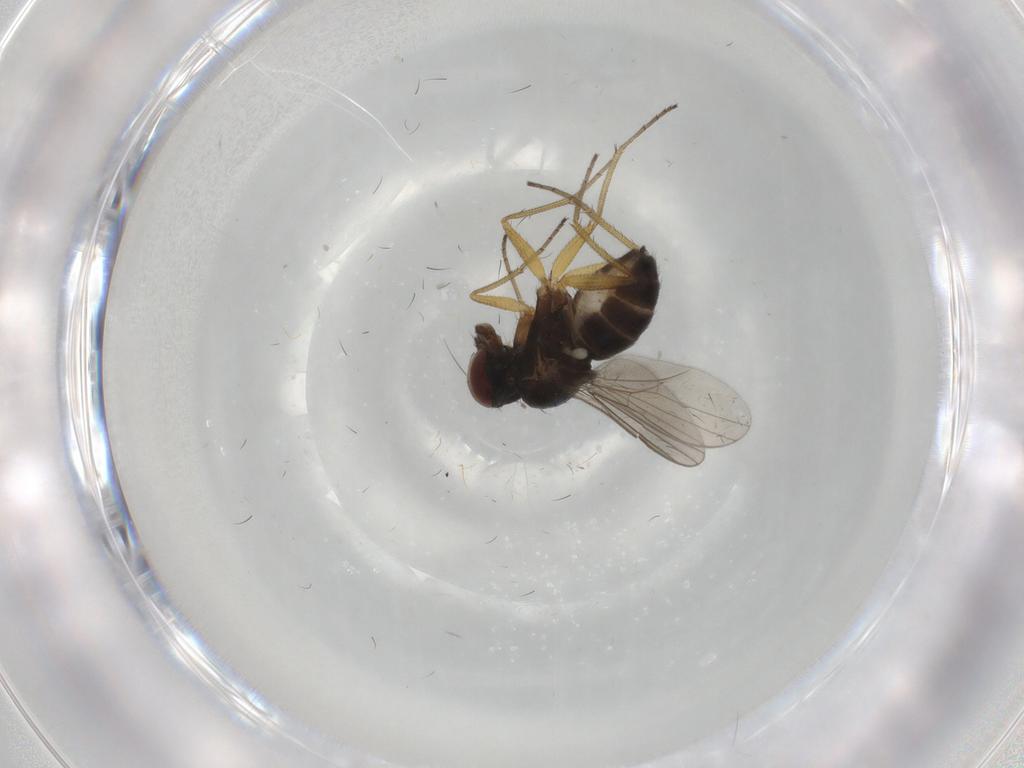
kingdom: Animalia
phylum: Arthropoda
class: Insecta
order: Diptera
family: Dolichopodidae
